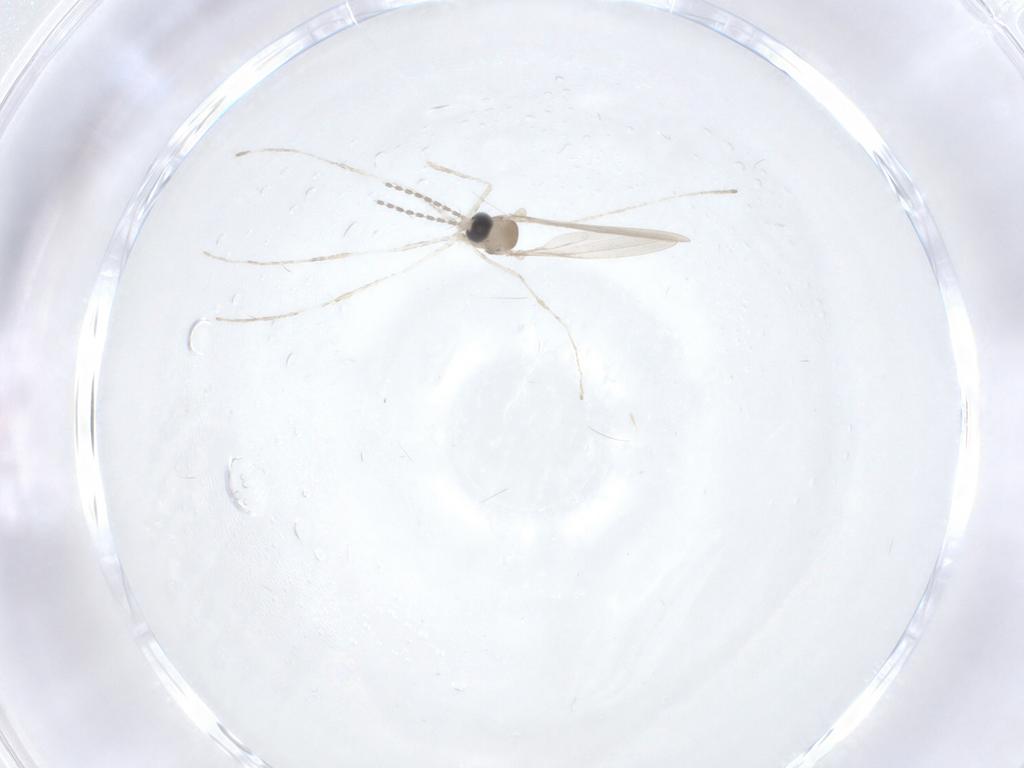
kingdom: Animalia
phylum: Arthropoda
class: Insecta
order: Diptera
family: Cecidomyiidae
